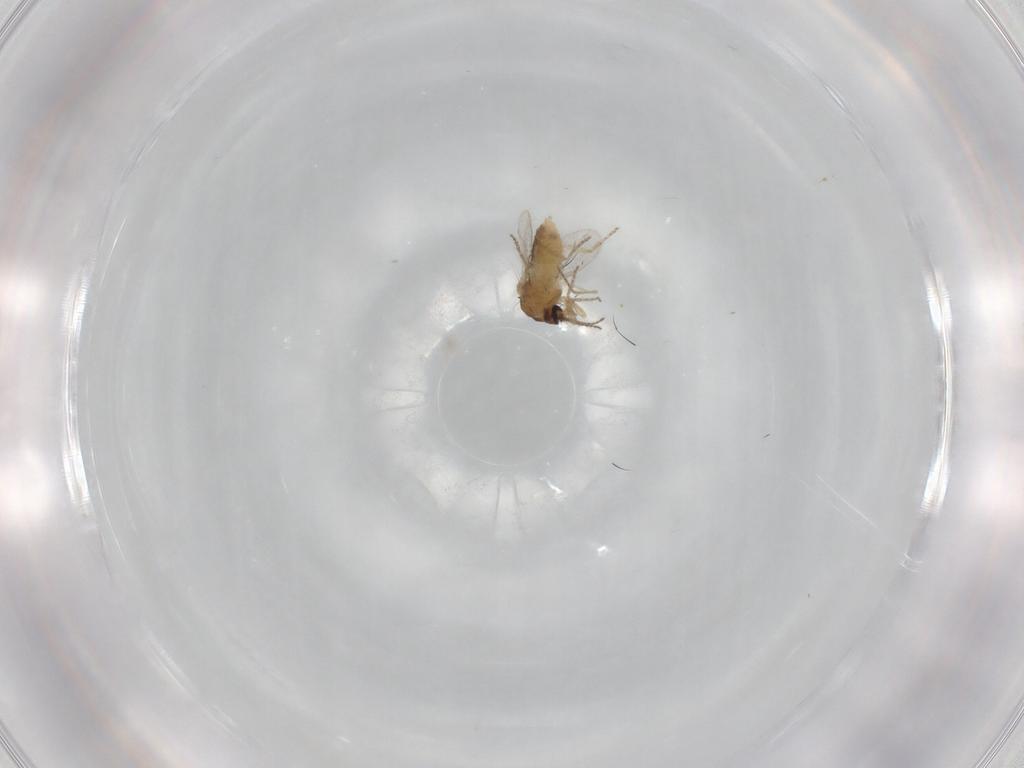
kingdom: Animalia
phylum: Arthropoda
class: Insecta
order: Diptera
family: Ceratopogonidae
